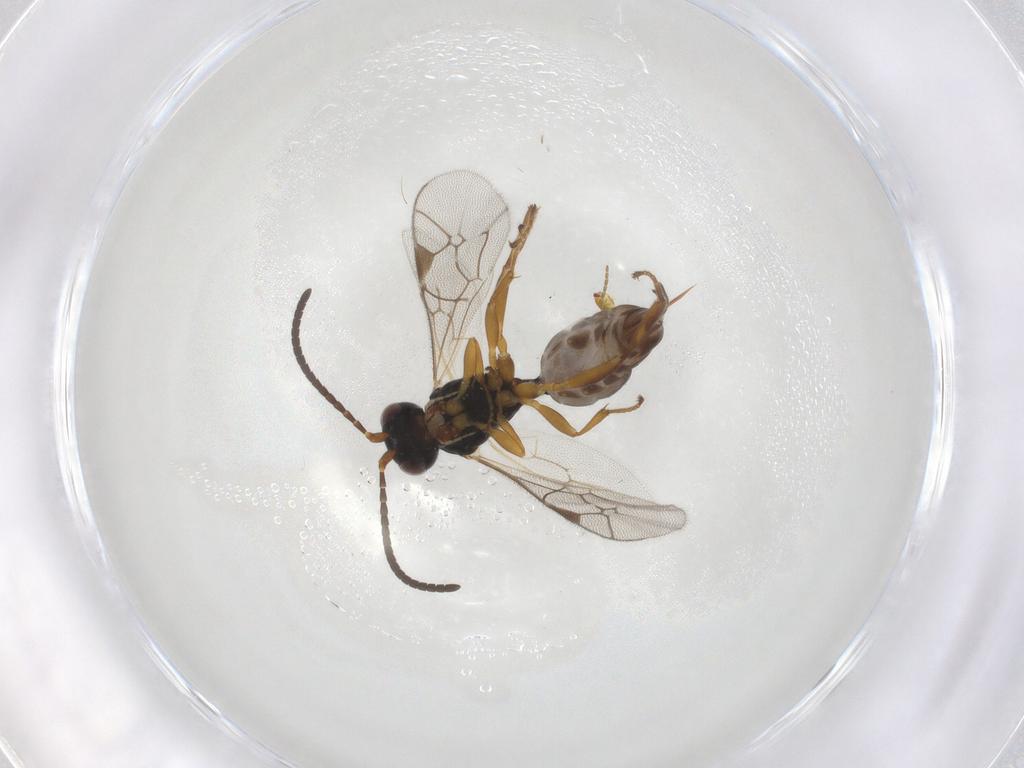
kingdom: Animalia
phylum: Arthropoda
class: Insecta
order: Hymenoptera
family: Ichneumonidae
